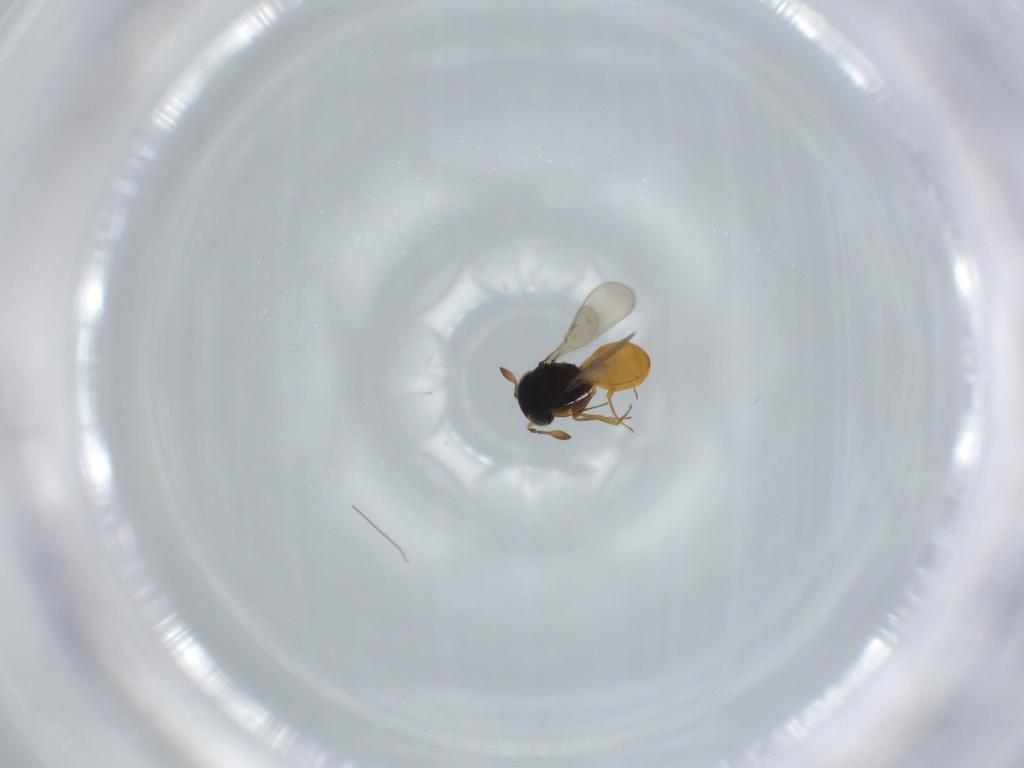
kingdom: Animalia
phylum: Arthropoda
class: Insecta
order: Hymenoptera
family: Scelionidae
